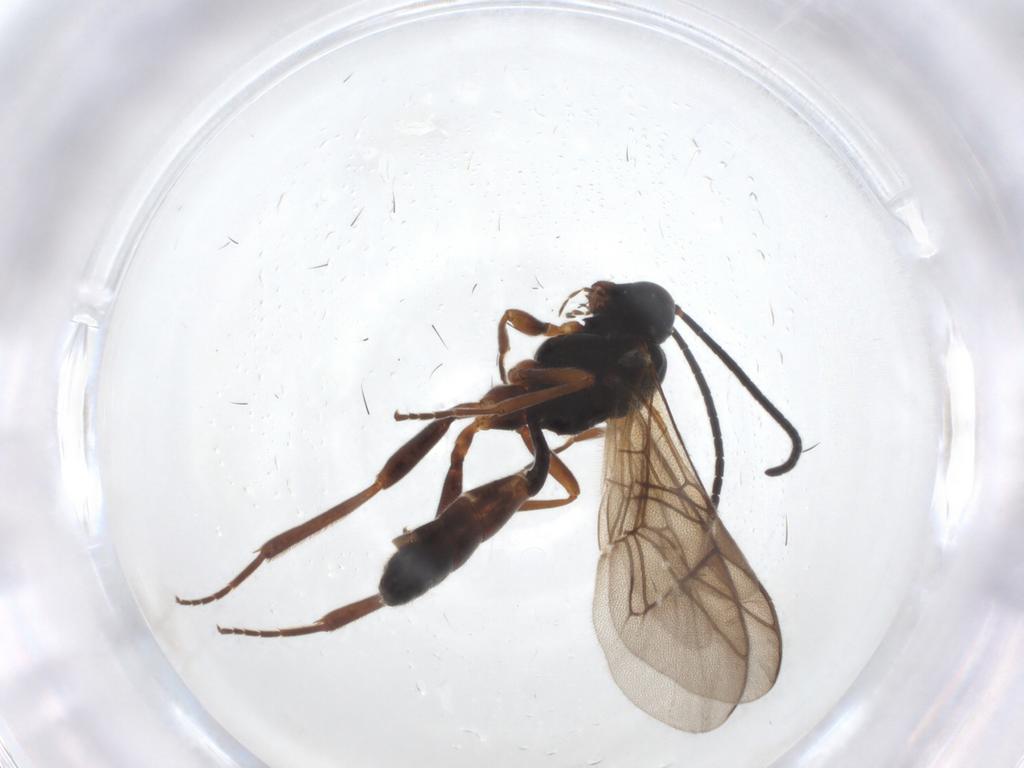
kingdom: Animalia
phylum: Arthropoda
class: Insecta
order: Hymenoptera
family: Ichneumonidae
